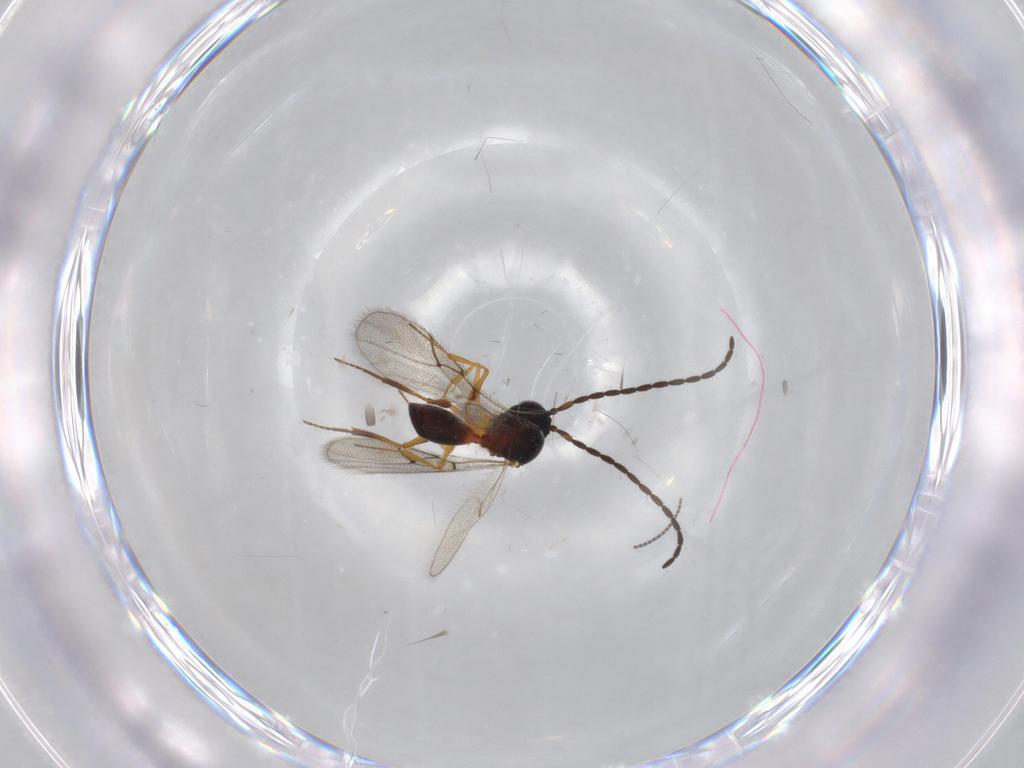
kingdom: Animalia
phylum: Arthropoda
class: Insecta
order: Hymenoptera
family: Figitidae
